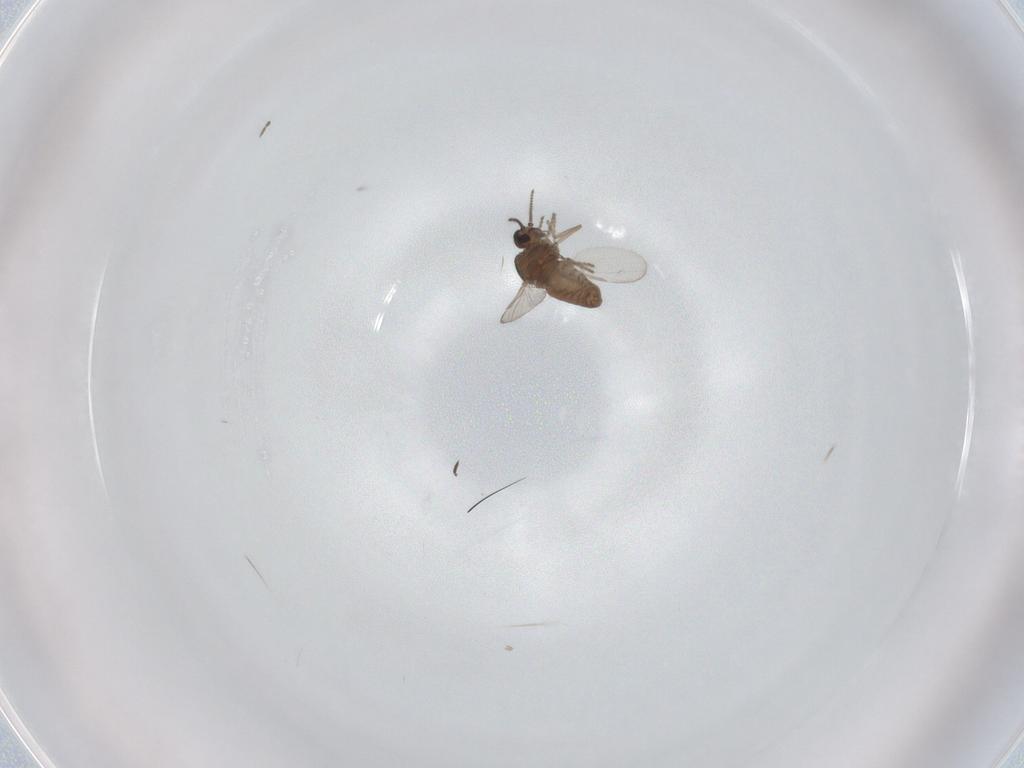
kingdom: Animalia
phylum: Arthropoda
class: Insecta
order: Diptera
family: Ceratopogonidae
